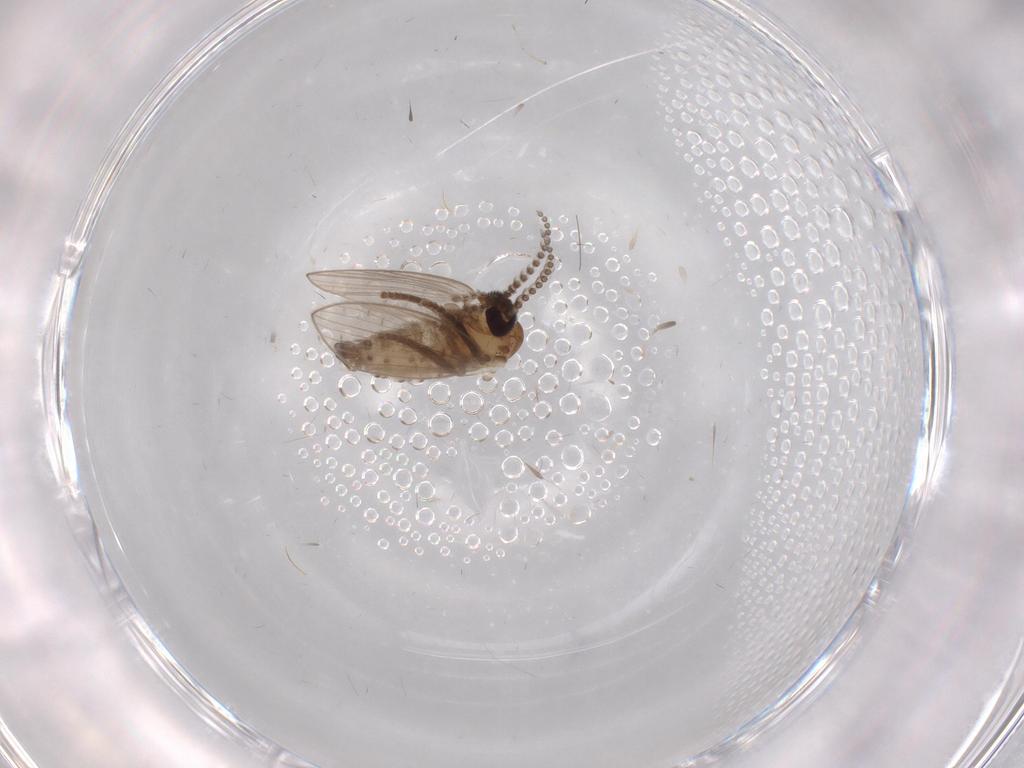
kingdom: Animalia
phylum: Arthropoda
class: Insecta
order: Diptera
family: Psychodidae
